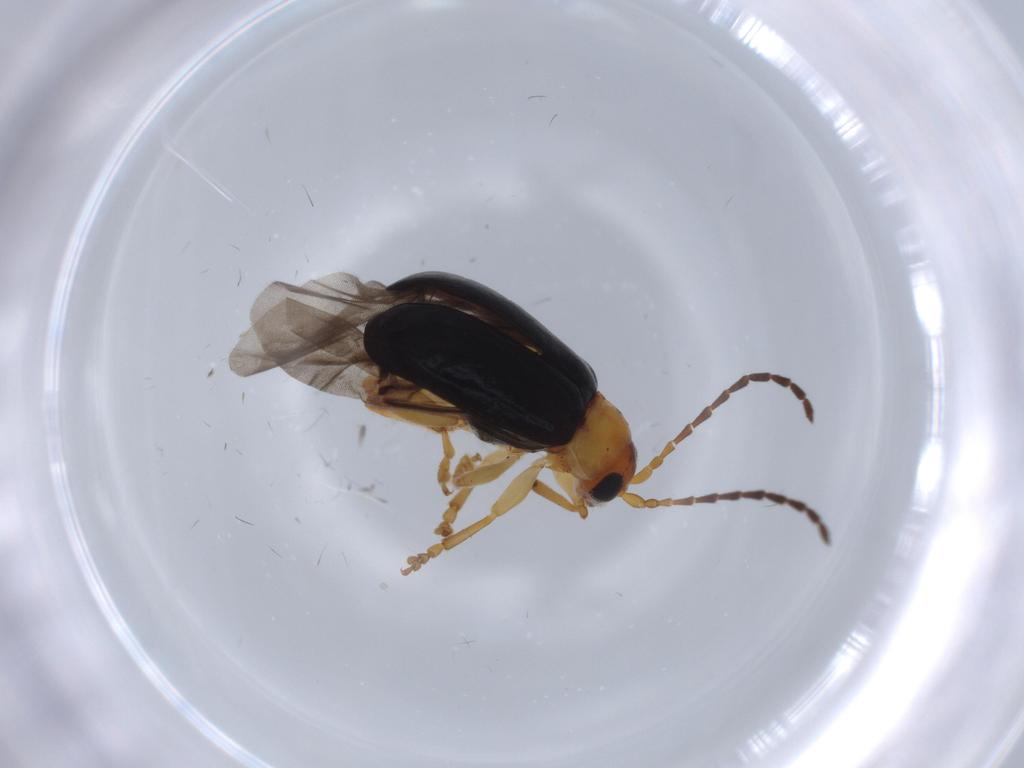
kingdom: Animalia
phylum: Arthropoda
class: Insecta
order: Coleoptera
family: Chrysomelidae
